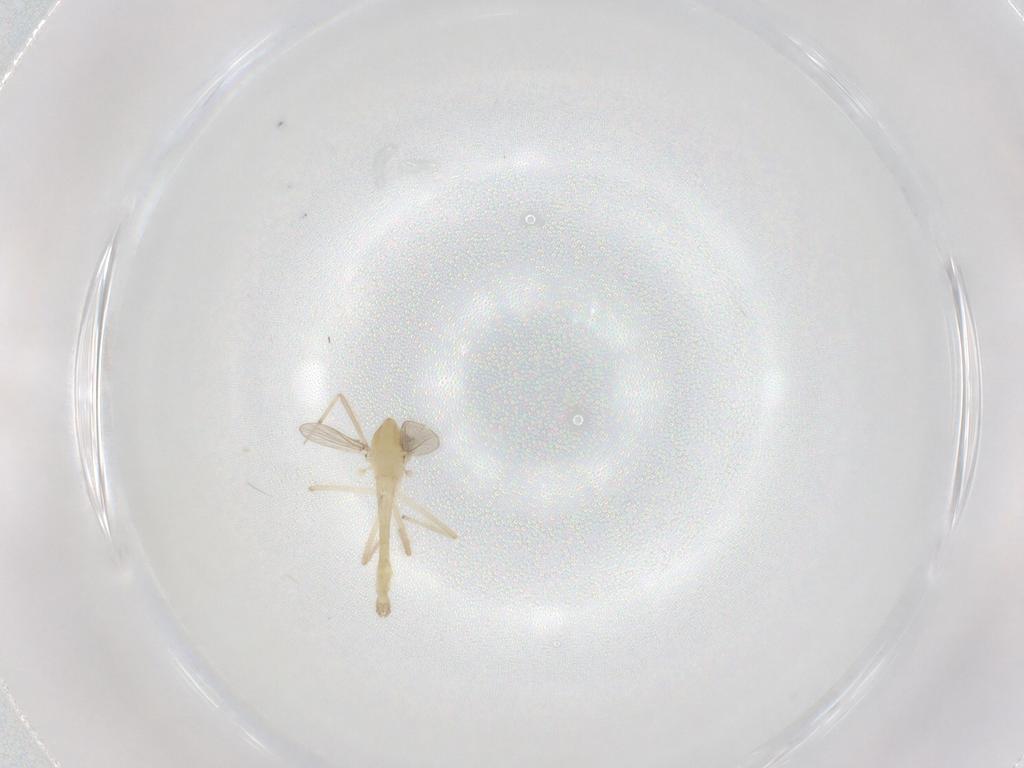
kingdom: Animalia
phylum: Arthropoda
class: Insecta
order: Diptera
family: Chironomidae
